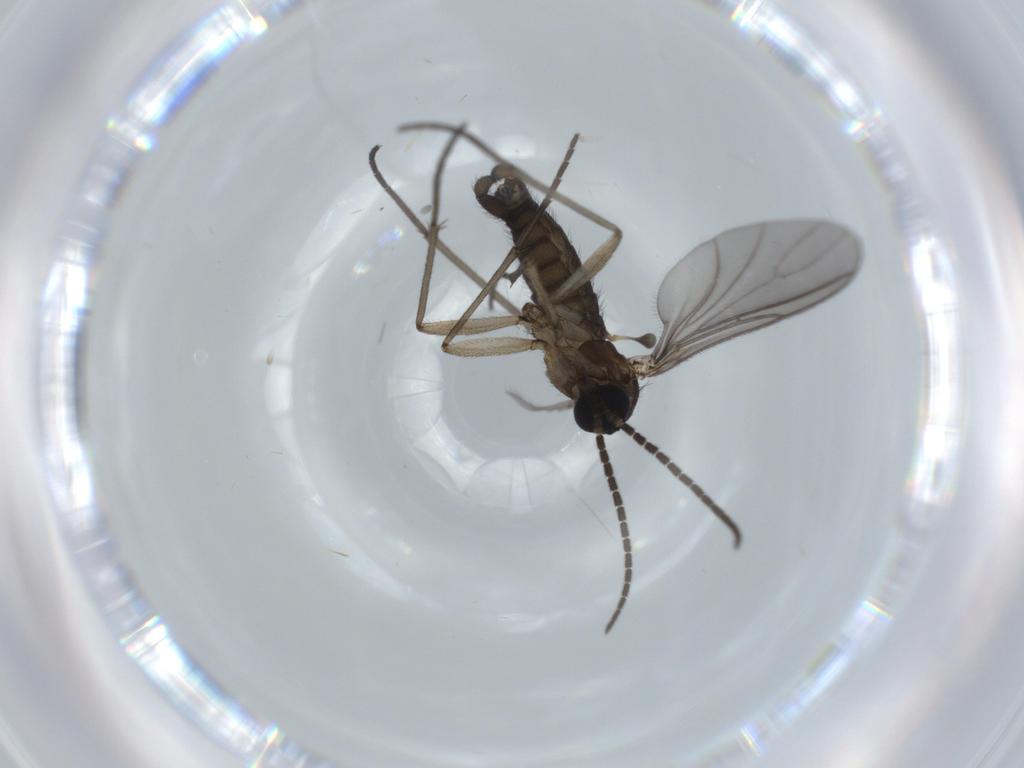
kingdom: Animalia
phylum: Arthropoda
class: Insecta
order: Diptera
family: Sciaridae
